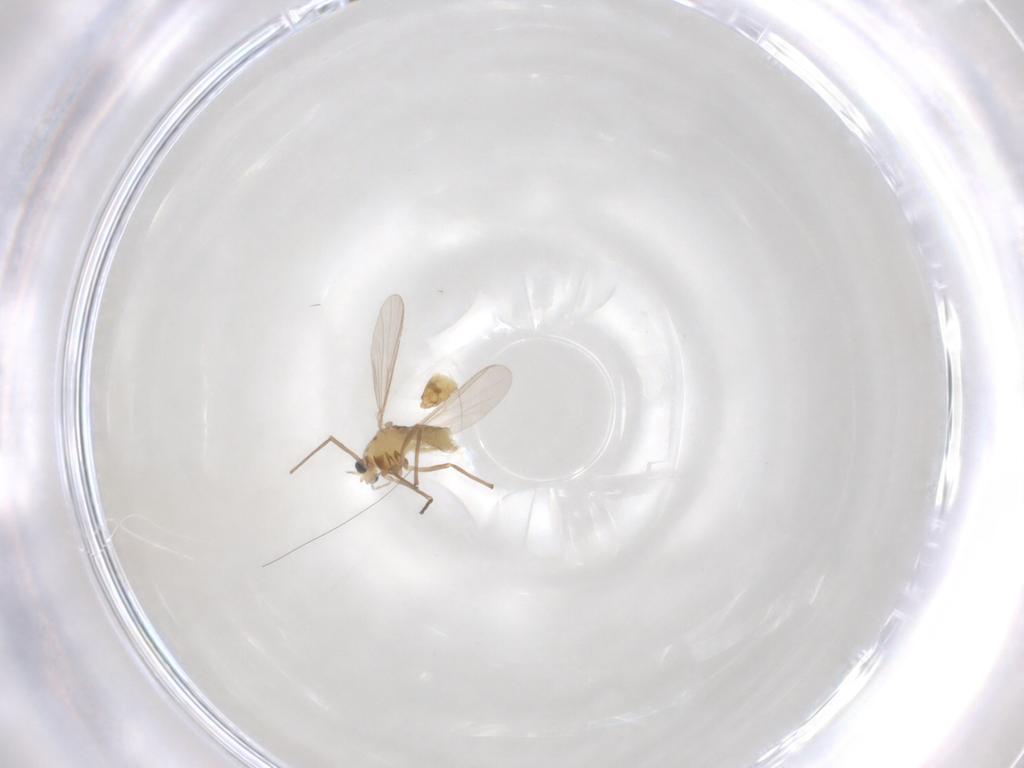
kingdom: Animalia
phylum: Arthropoda
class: Insecta
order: Diptera
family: Chironomidae
